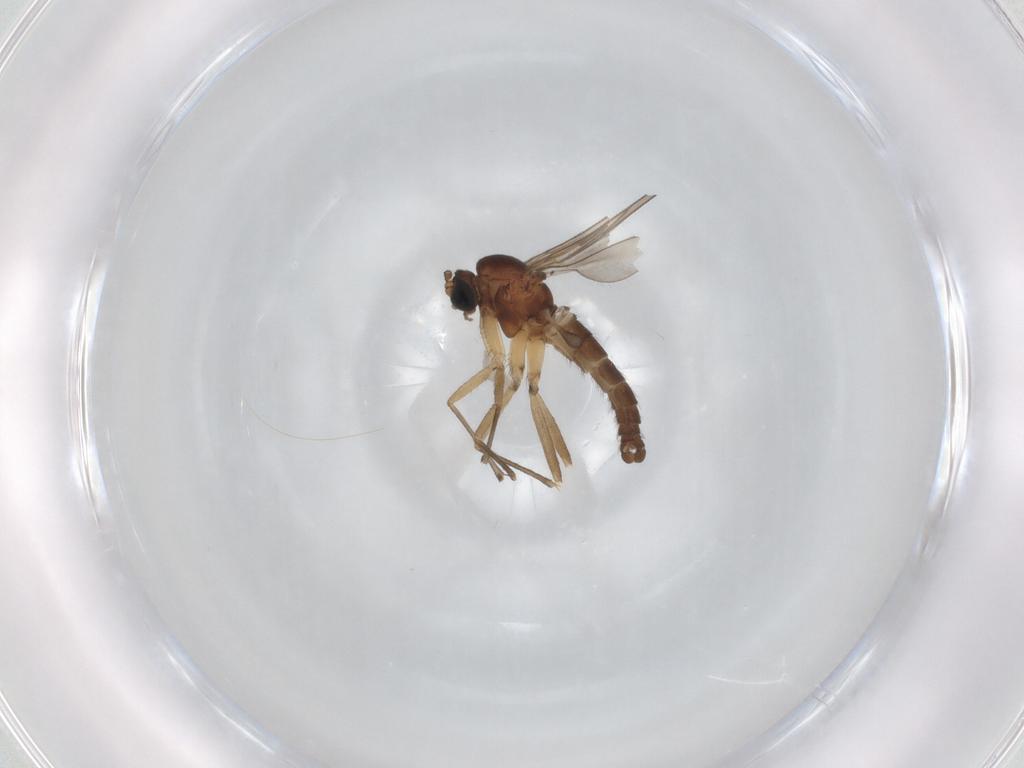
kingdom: Animalia
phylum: Arthropoda
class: Insecta
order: Diptera
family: Sciaridae
